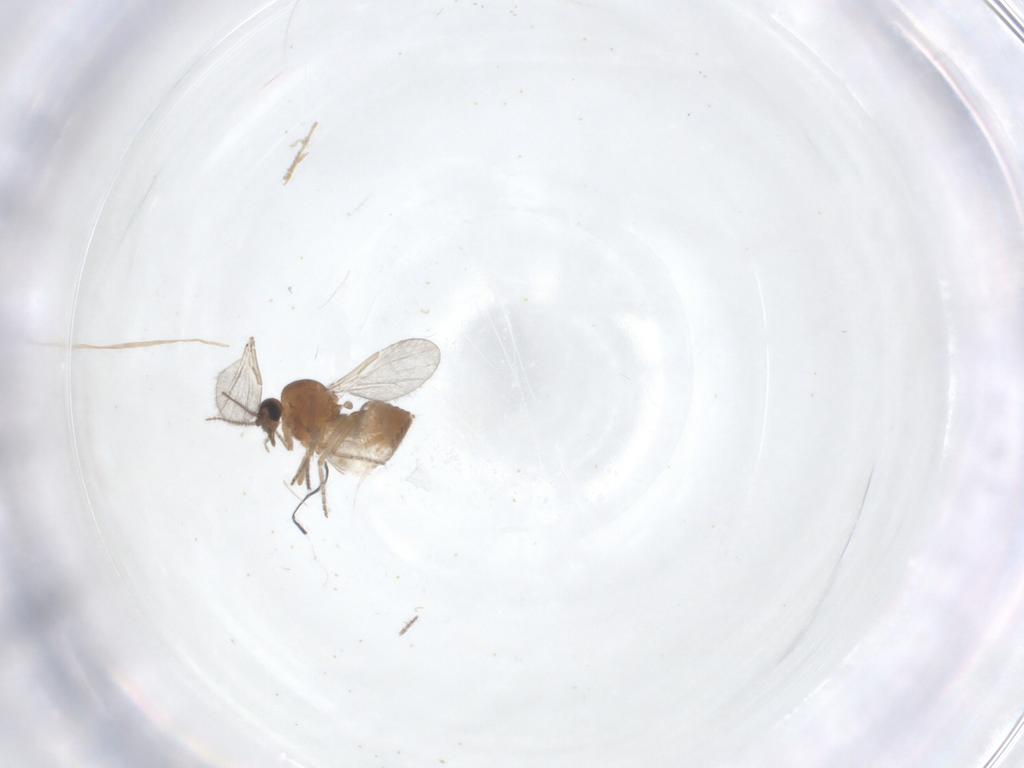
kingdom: Animalia
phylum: Arthropoda
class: Insecta
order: Diptera
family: Ceratopogonidae
